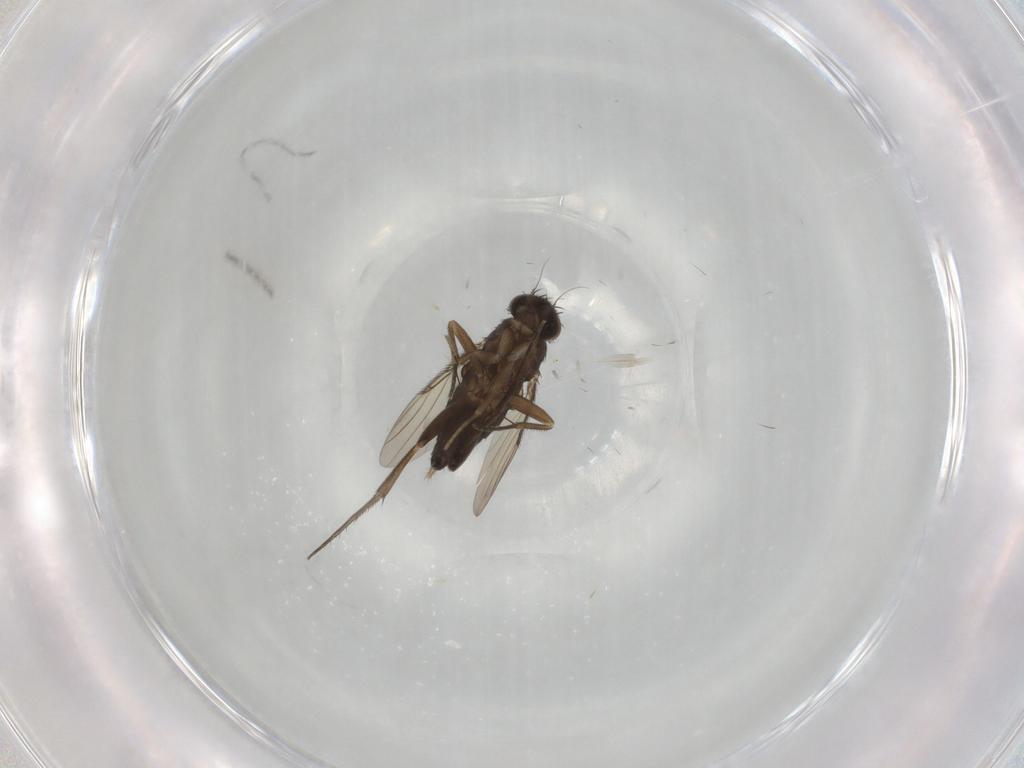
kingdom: Animalia
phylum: Arthropoda
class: Insecta
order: Diptera
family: Phoridae
